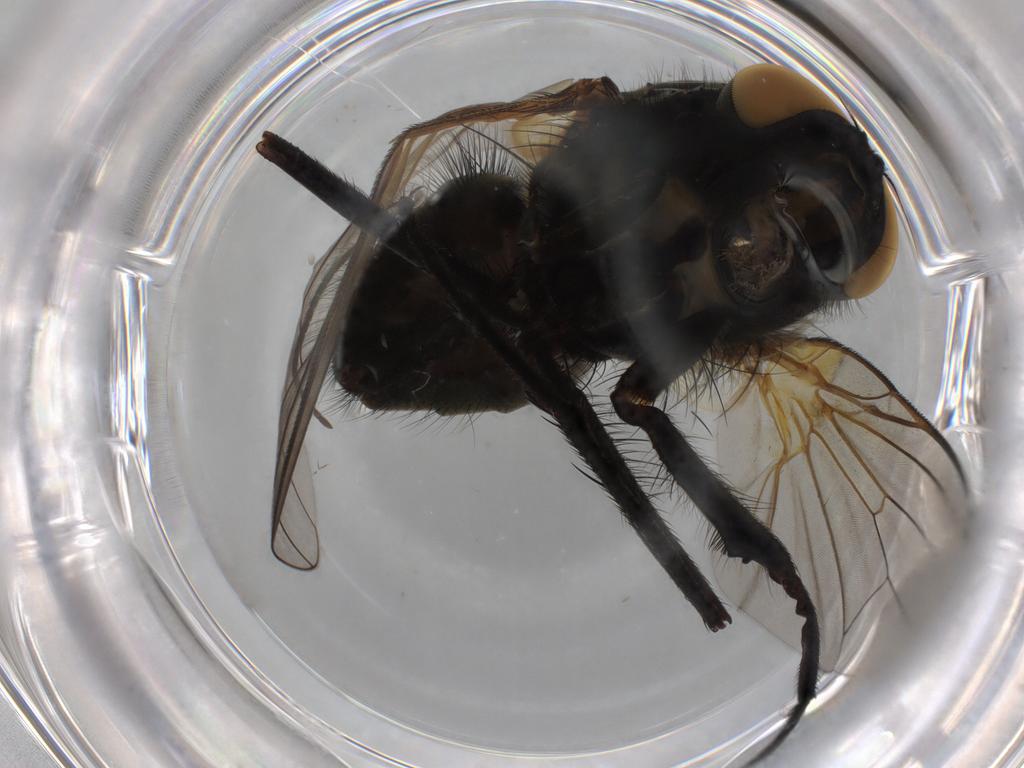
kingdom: Animalia
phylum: Arthropoda
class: Insecta
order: Diptera
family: Muscidae
